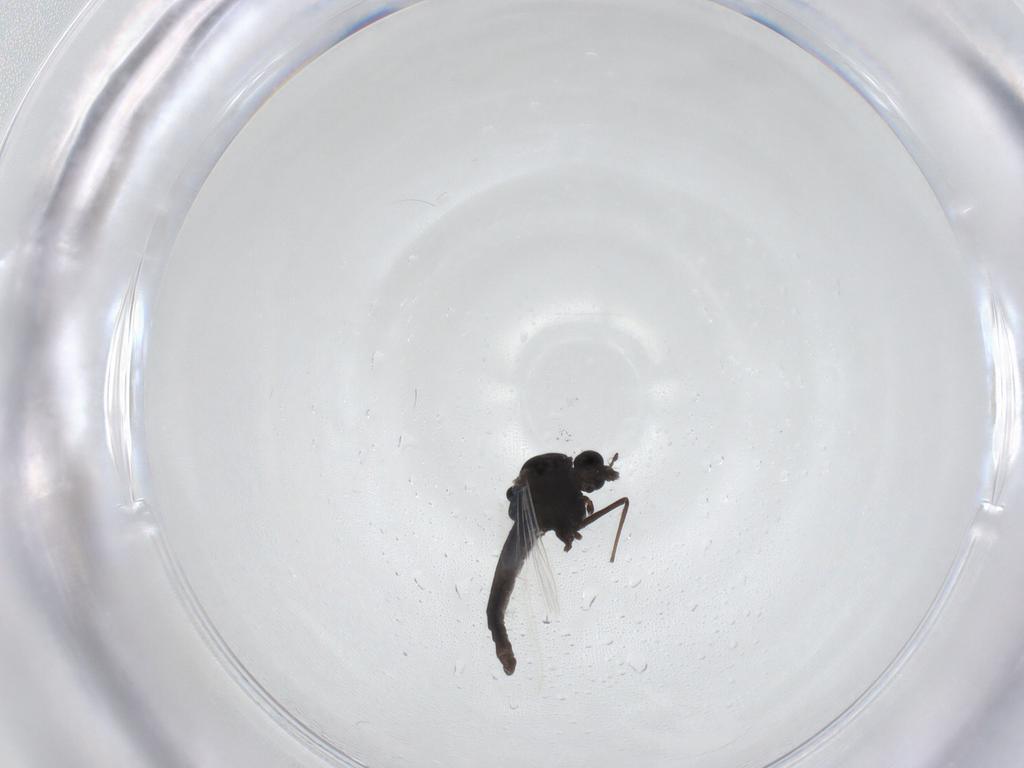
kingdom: Animalia
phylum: Arthropoda
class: Insecta
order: Diptera
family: Chironomidae
